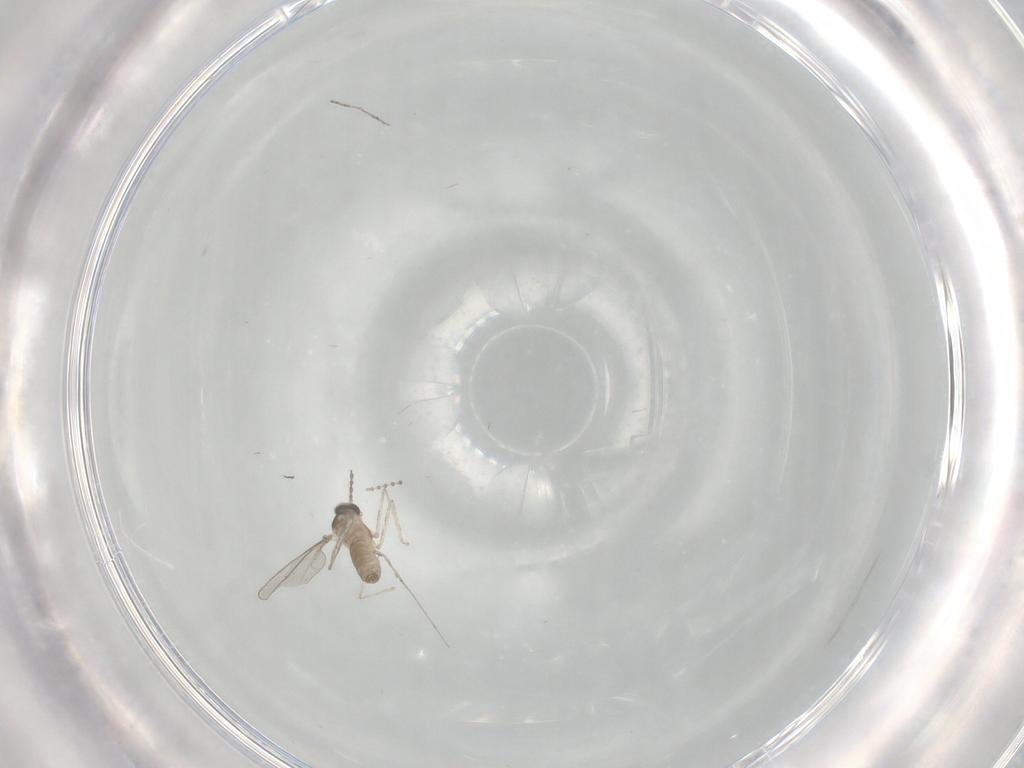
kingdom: Animalia
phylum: Arthropoda
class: Insecta
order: Diptera
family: Cecidomyiidae
